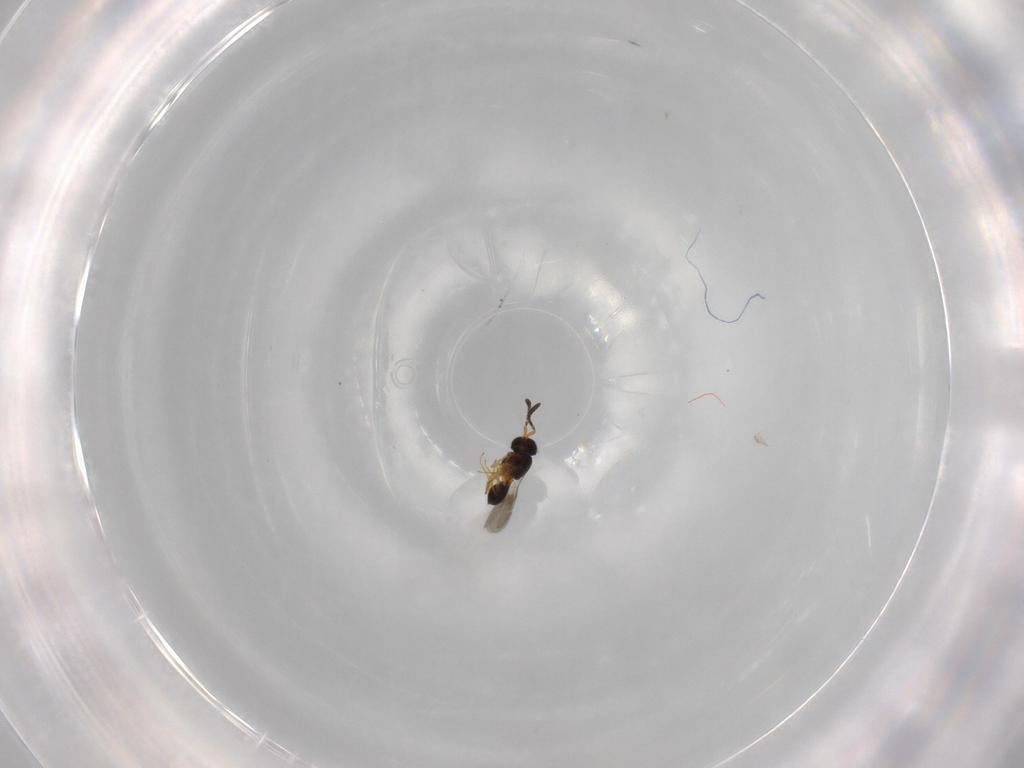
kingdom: Animalia
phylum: Arthropoda
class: Insecta
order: Hymenoptera
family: Scelionidae
